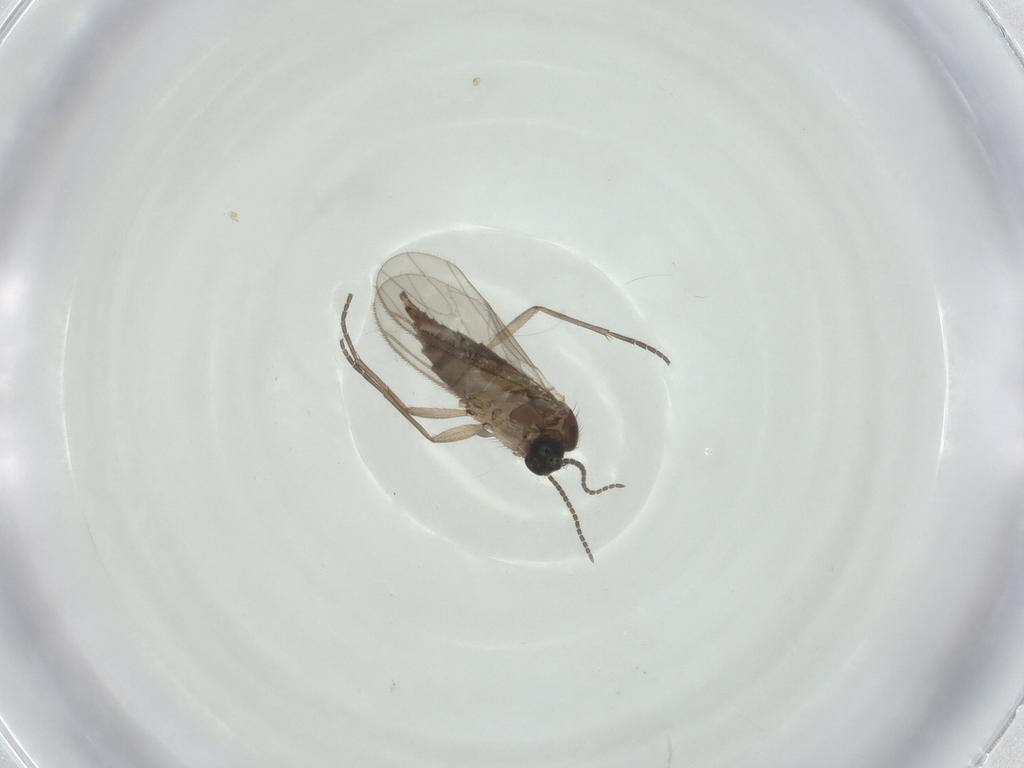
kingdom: Animalia
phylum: Arthropoda
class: Insecta
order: Diptera
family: Sciaridae
